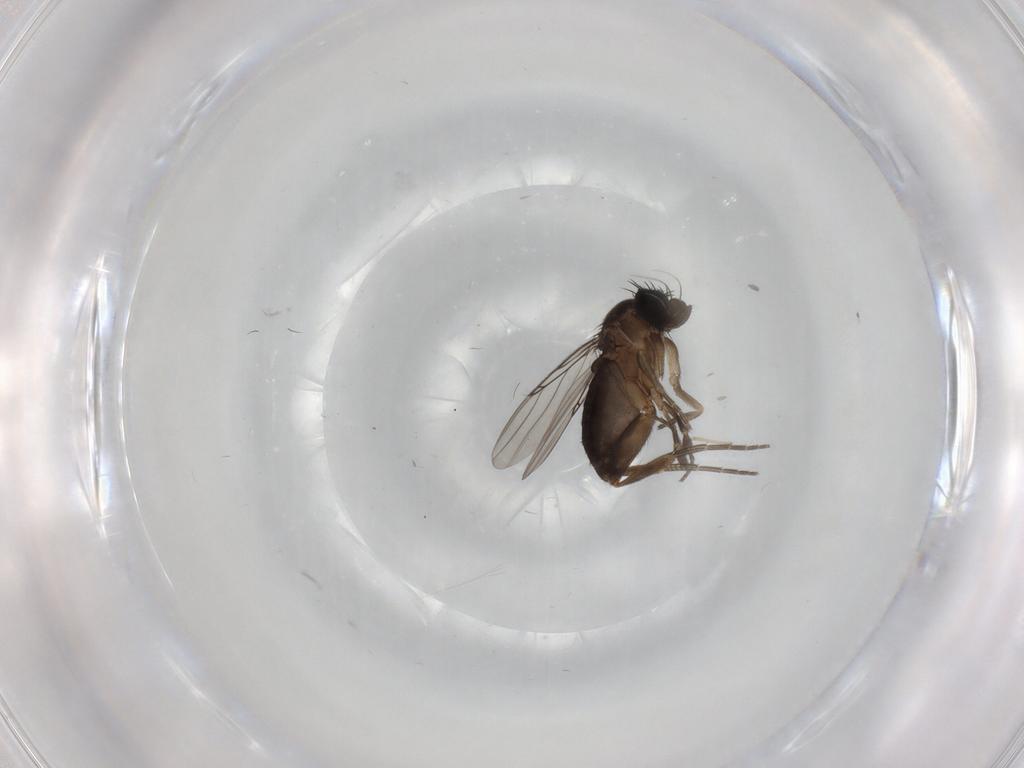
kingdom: Animalia
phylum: Arthropoda
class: Insecta
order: Diptera
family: Phoridae
